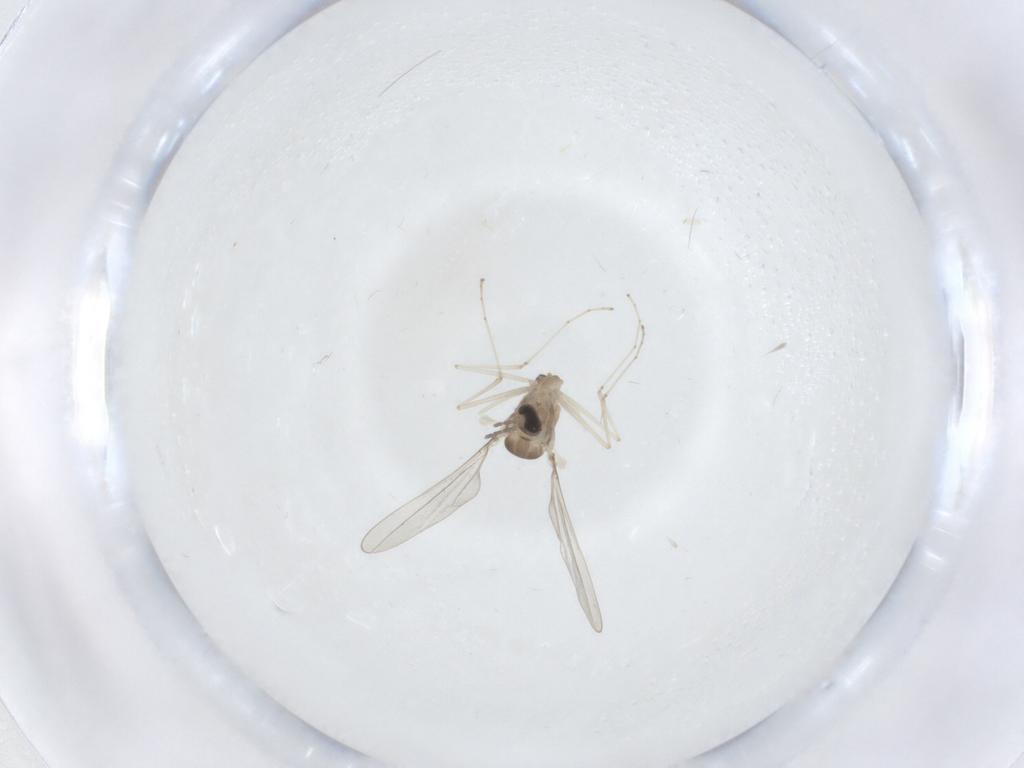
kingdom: Animalia
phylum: Arthropoda
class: Insecta
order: Diptera
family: Cecidomyiidae
